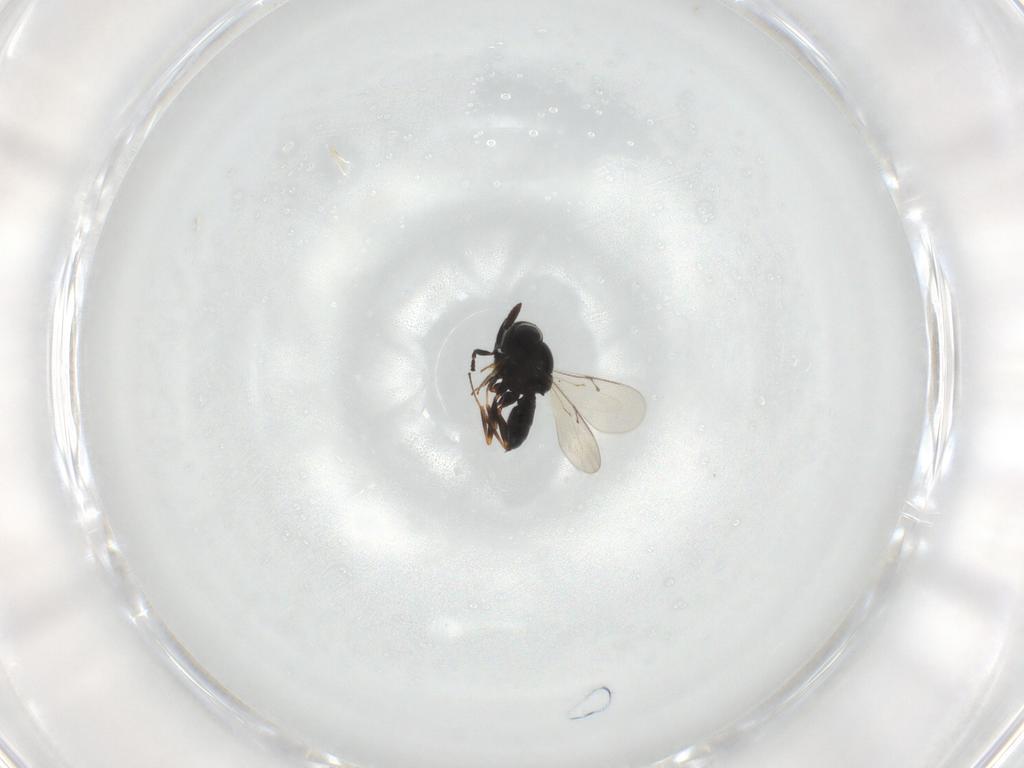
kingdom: Animalia
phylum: Arthropoda
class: Insecta
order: Hymenoptera
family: Scelionidae
